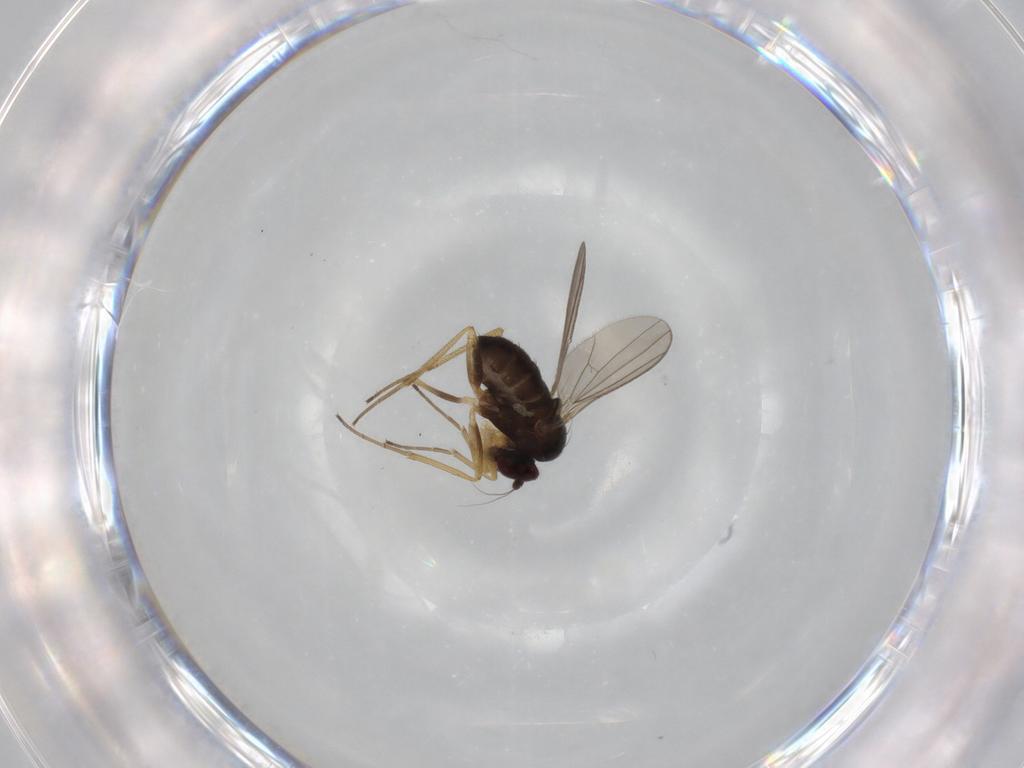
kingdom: Animalia
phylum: Arthropoda
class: Insecta
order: Diptera
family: Dolichopodidae
